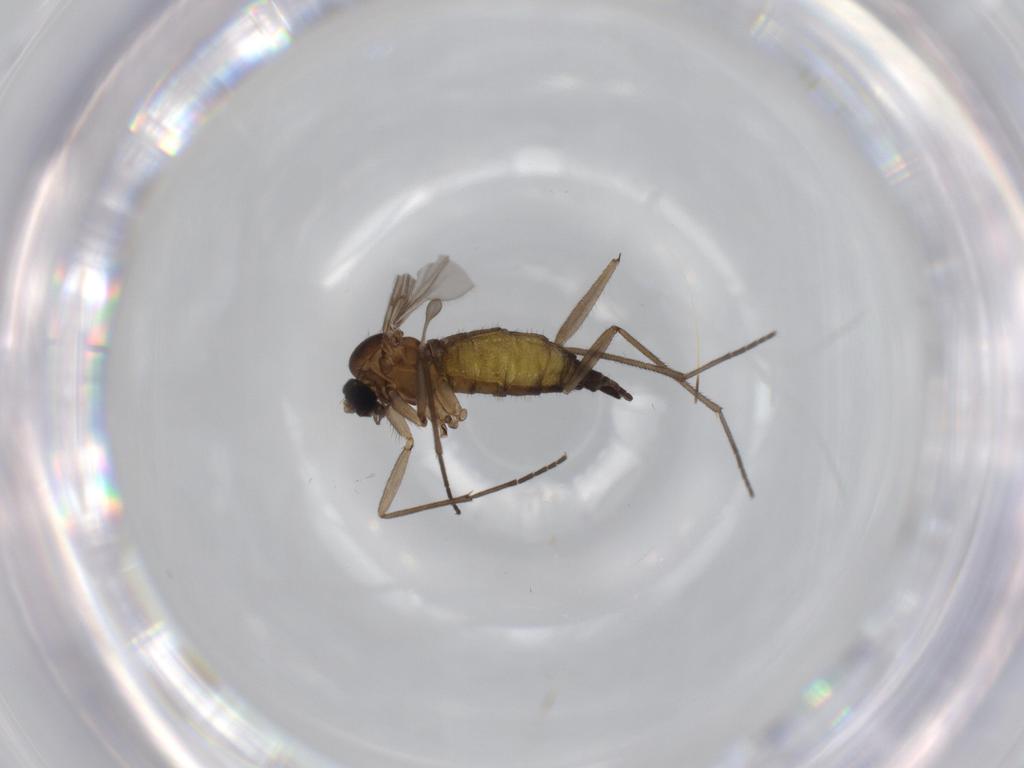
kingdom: Animalia
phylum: Arthropoda
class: Insecta
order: Diptera
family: Sciaridae
